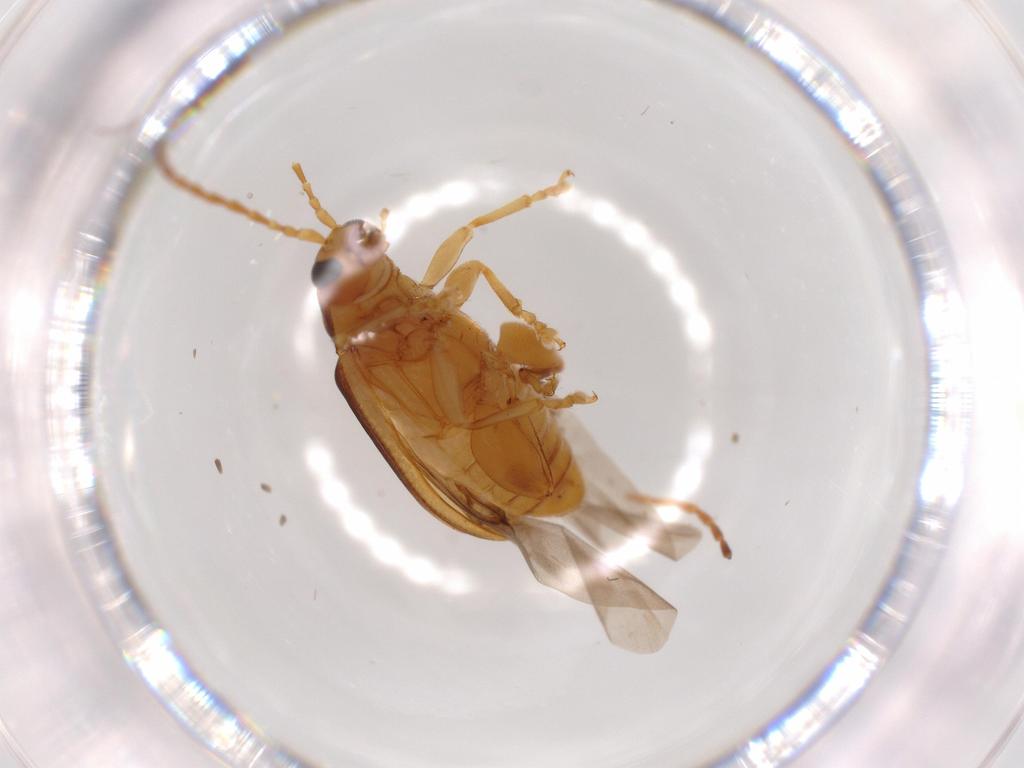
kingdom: Animalia
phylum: Arthropoda
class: Insecta
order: Coleoptera
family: Chrysomelidae
